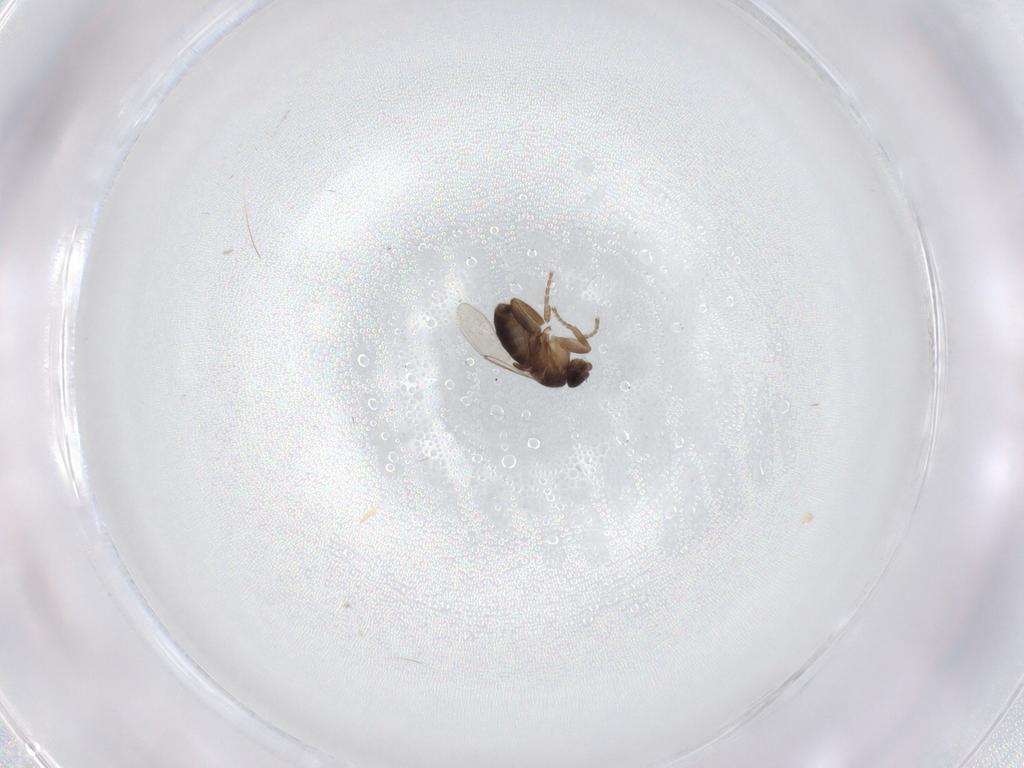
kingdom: Animalia
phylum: Arthropoda
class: Insecta
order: Diptera
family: Phoridae
